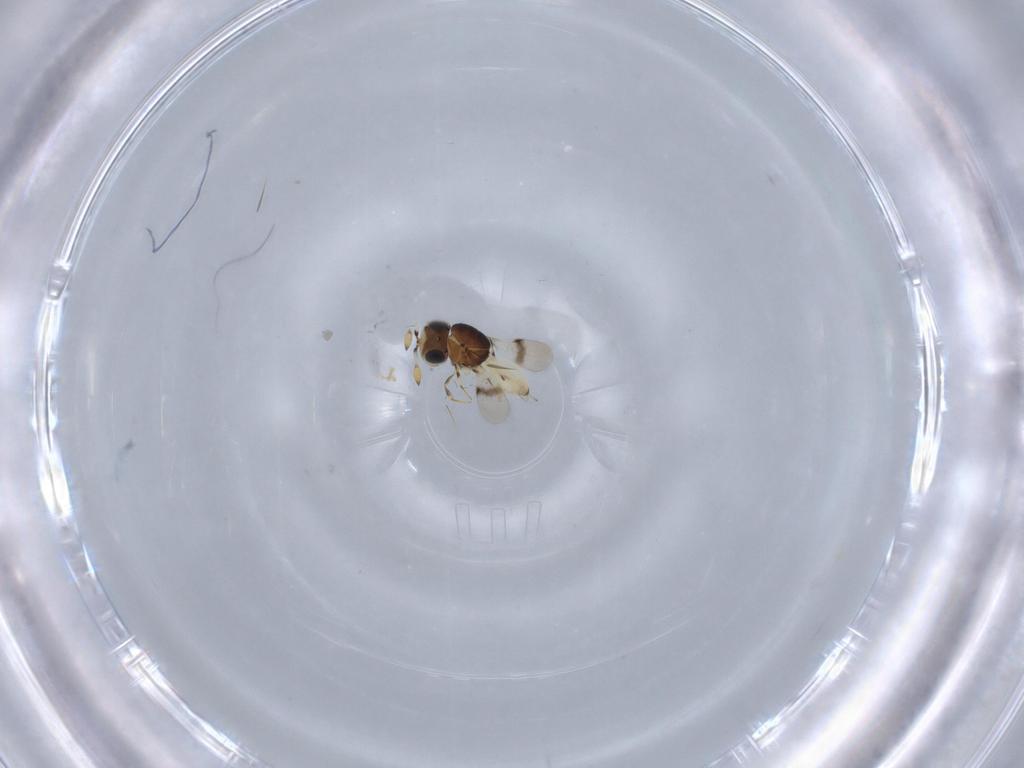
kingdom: Animalia
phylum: Arthropoda
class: Insecta
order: Hymenoptera
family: Scelionidae
